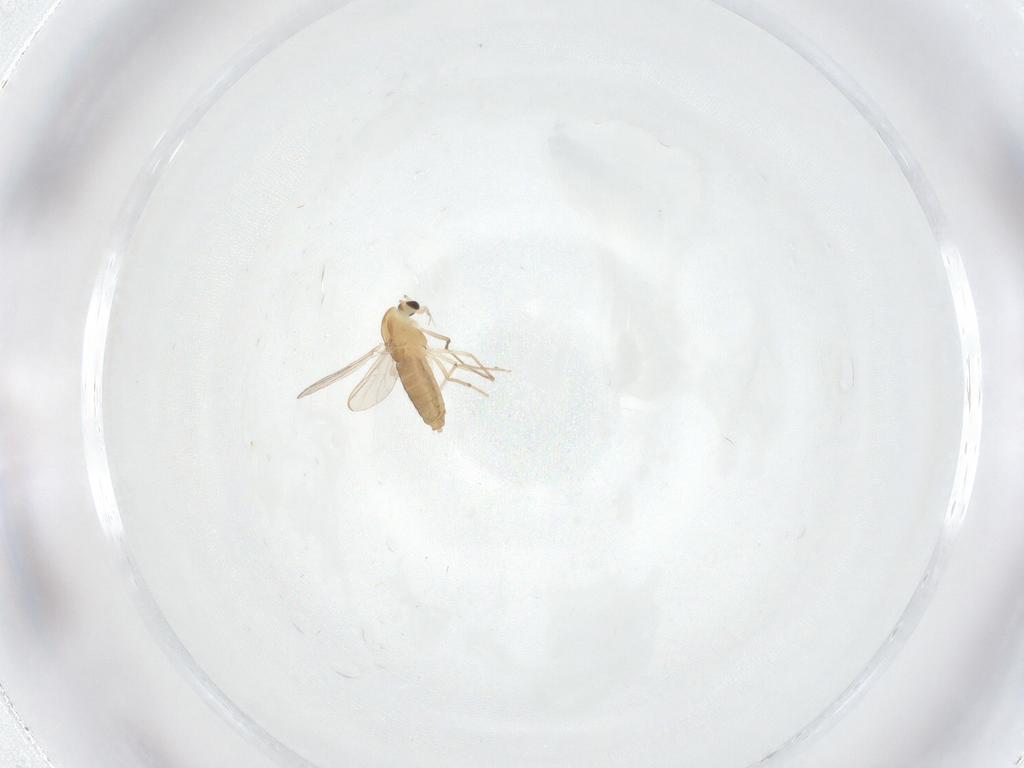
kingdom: Animalia
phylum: Arthropoda
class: Insecta
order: Diptera
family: Chironomidae
